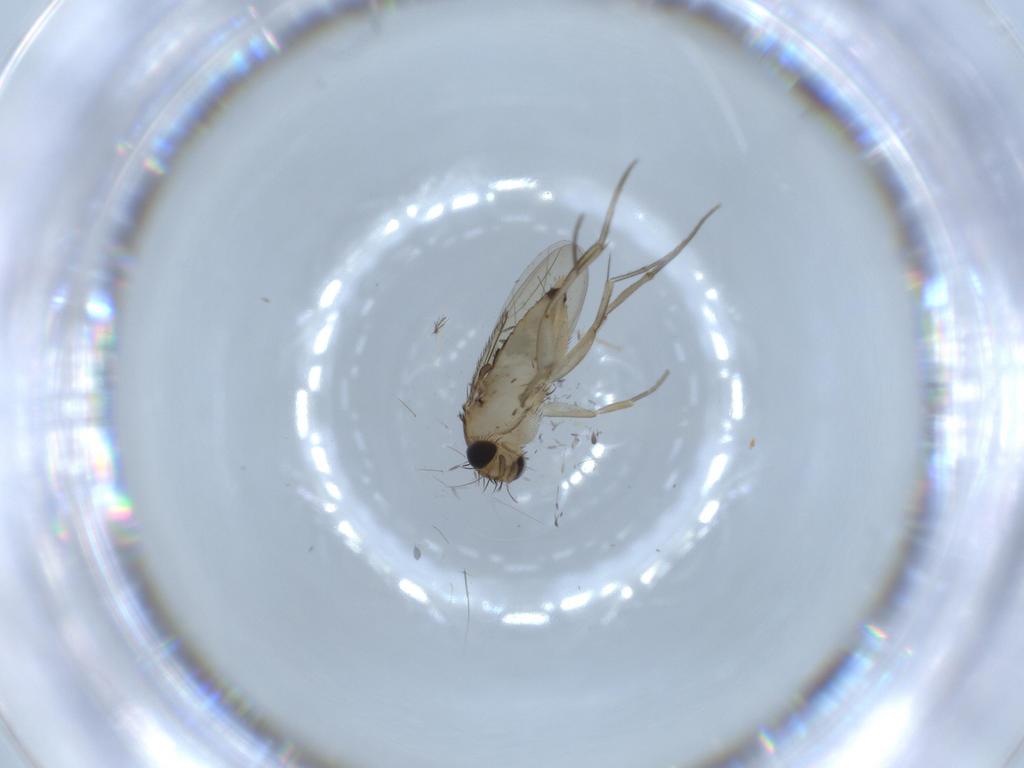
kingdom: Animalia
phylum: Arthropoda
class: Insecta
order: Diptera
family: Phoridae
